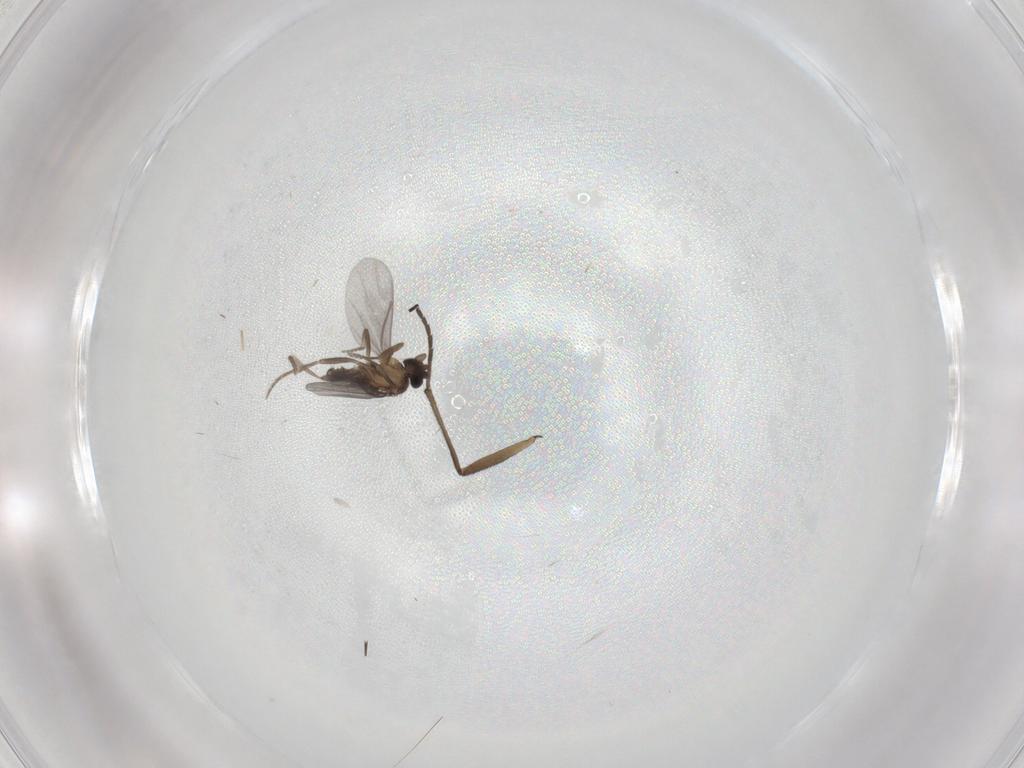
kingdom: Animalia
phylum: Arthropoda
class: Insecta
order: Diptera
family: Sciaridae
